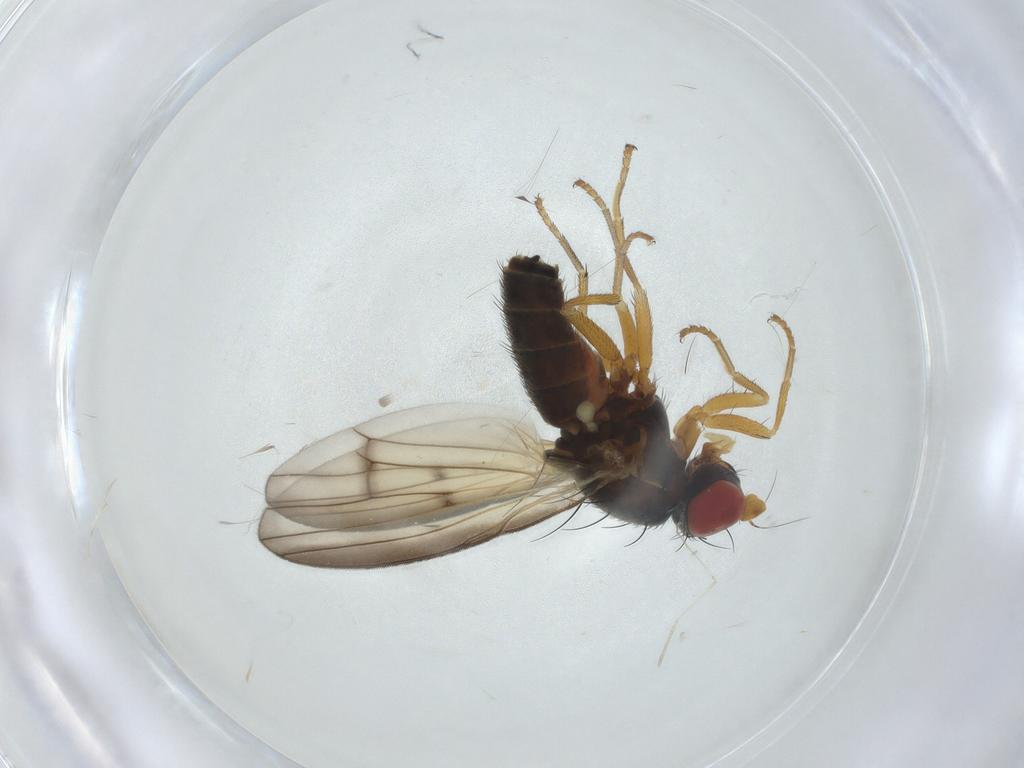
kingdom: Animalia
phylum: Arthropoda
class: Insecta
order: Diptera
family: Chamaemyiidae
